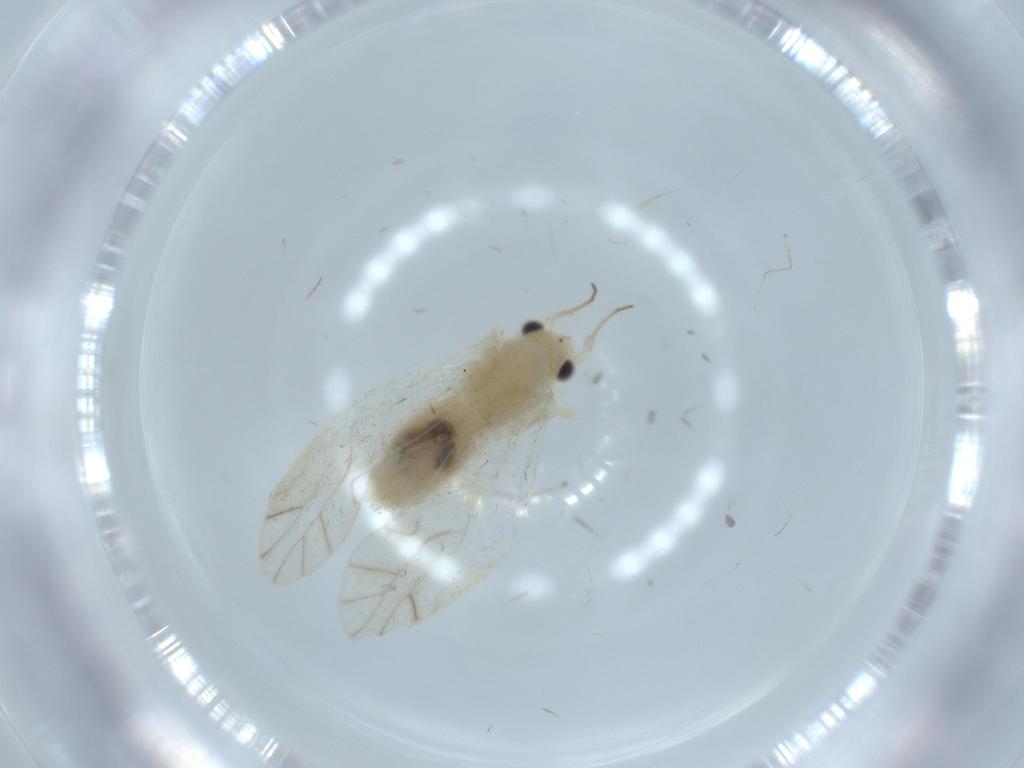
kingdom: Animalia
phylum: Arthropoda
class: Insecta
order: Psocodea
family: Caeciliusidae
